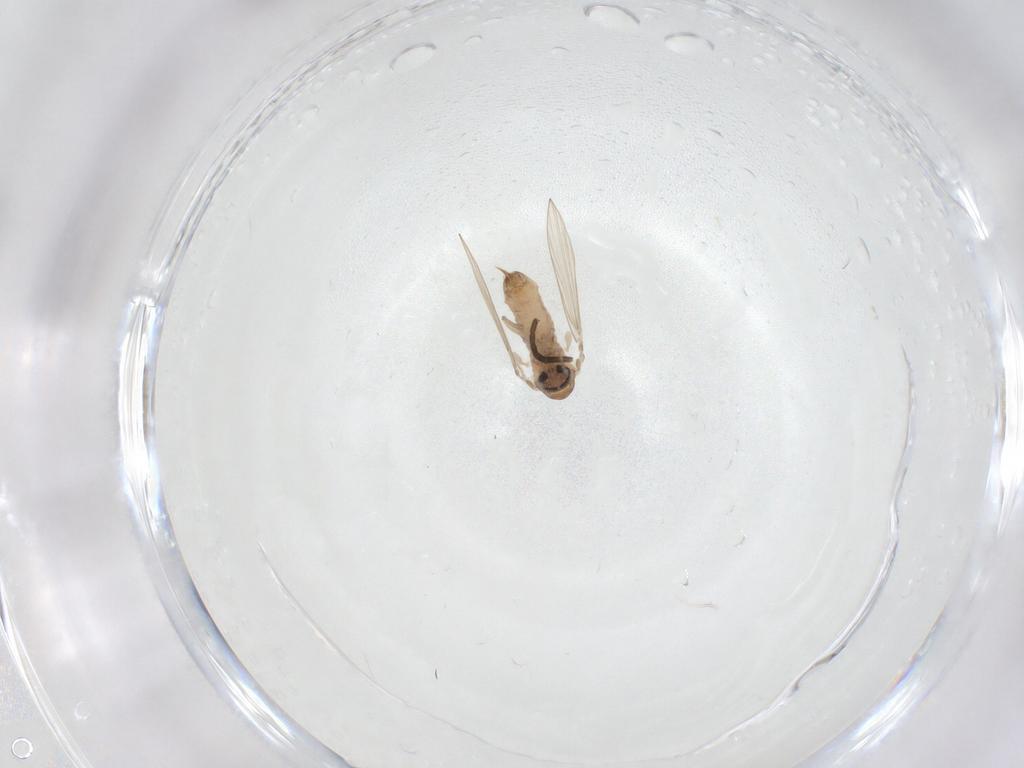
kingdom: Animalia
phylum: Arthropoda
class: Insecta
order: Diptera
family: Psychodidae
